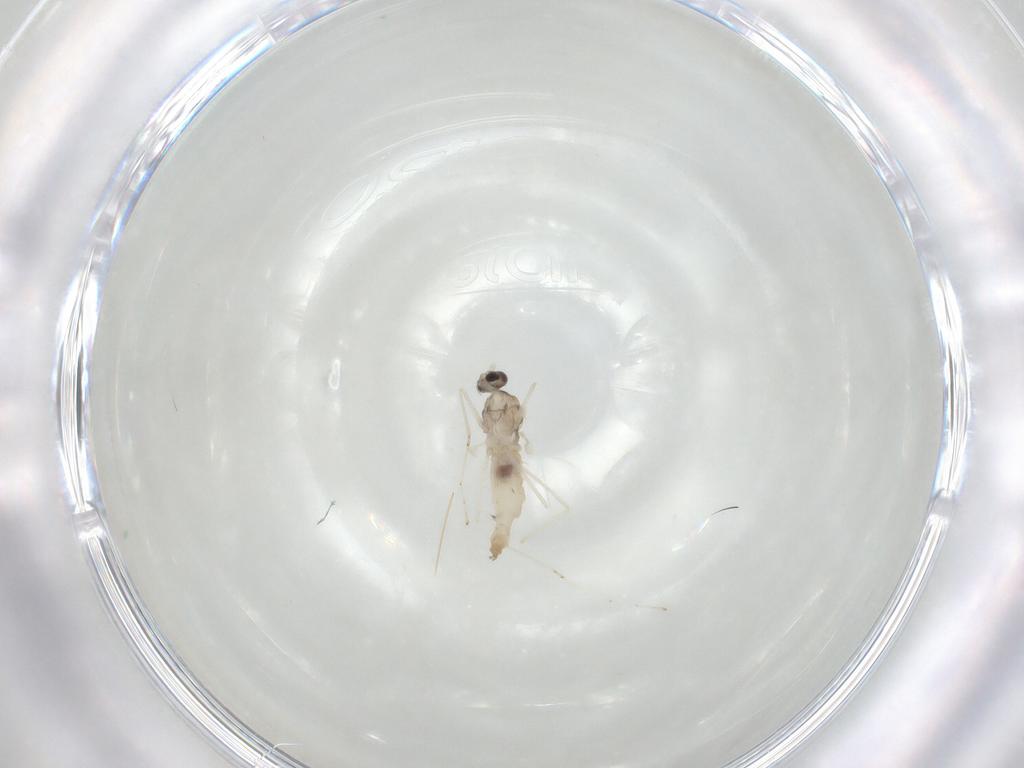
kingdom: Animalia
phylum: Arthropoda
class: Insecta
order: Diptera
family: Cecidomyiidae
